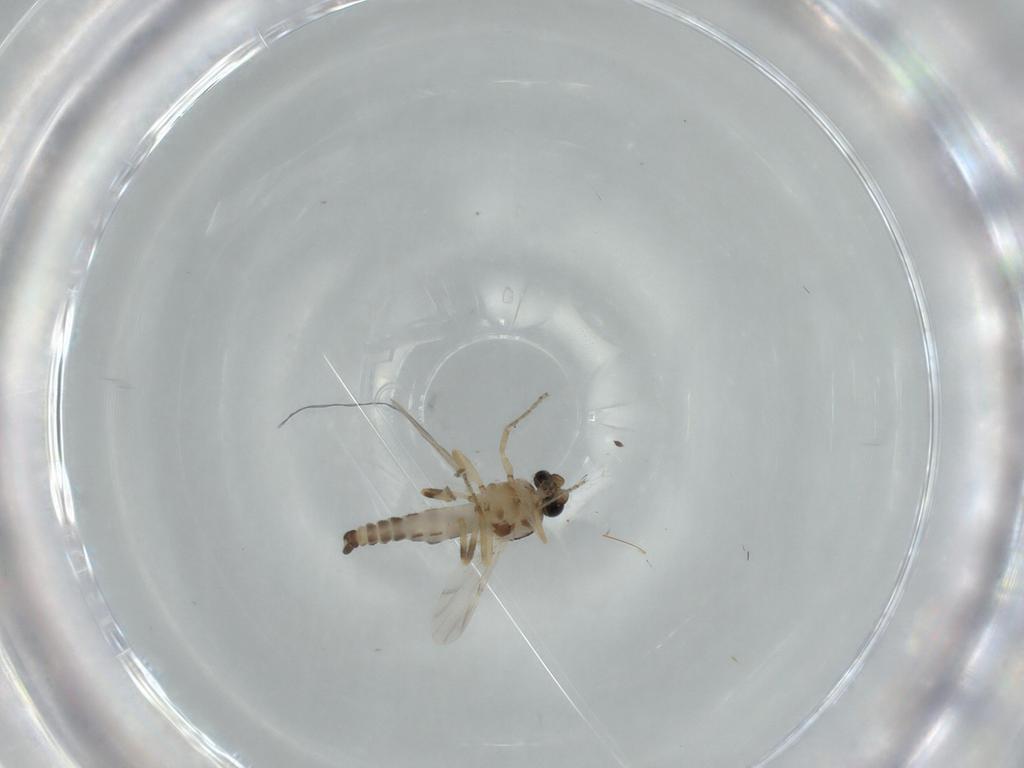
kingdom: Animalia
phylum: Arthropoda
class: Insecta
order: Diptera
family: Ceratopogonidae
